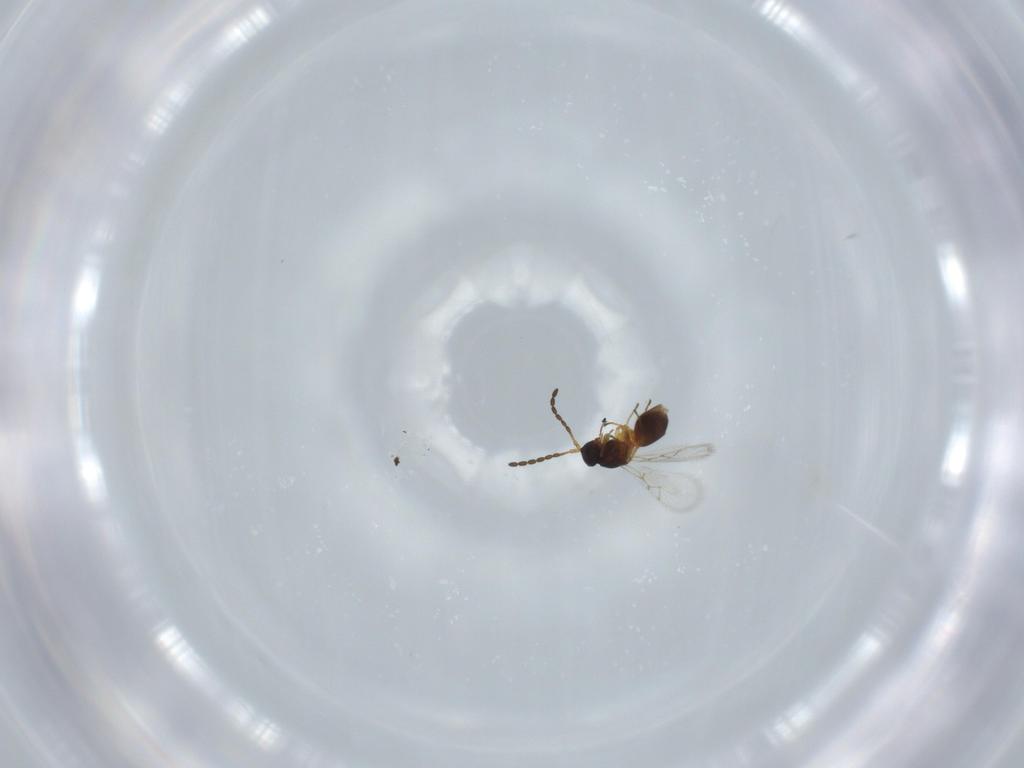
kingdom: Animalia
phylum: Arthropoda
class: Insecta
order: Hymenoptera
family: Figitidae
